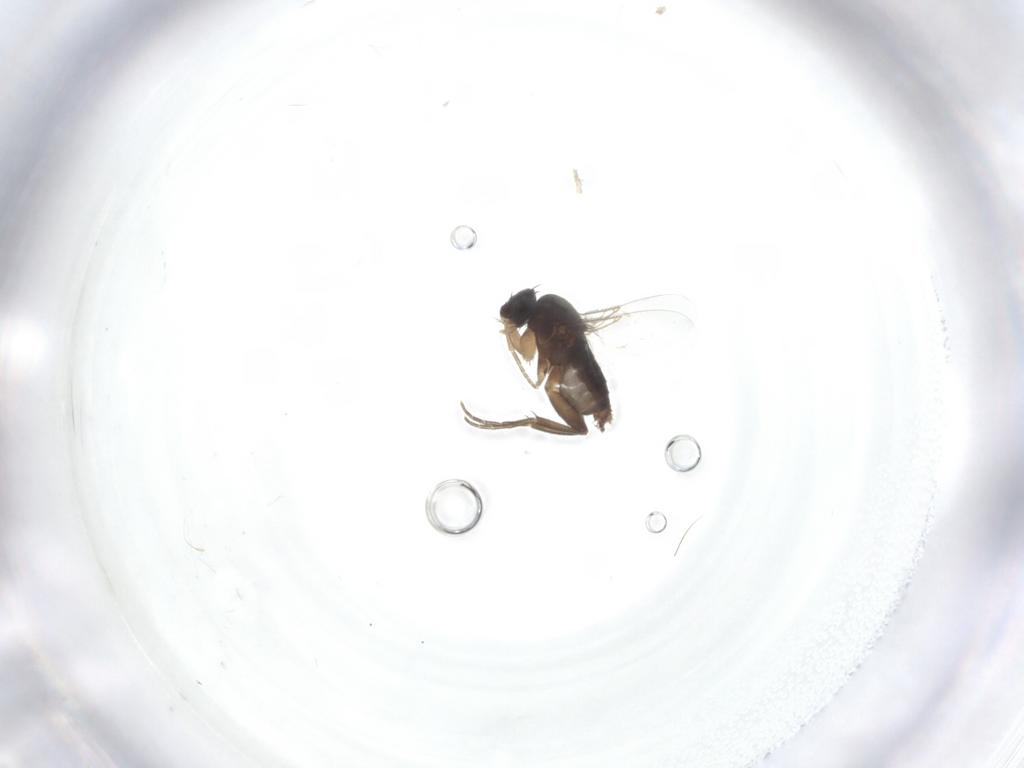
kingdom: Animalia
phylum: Arthropoda
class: Insecta
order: Diptera
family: Phoridae
